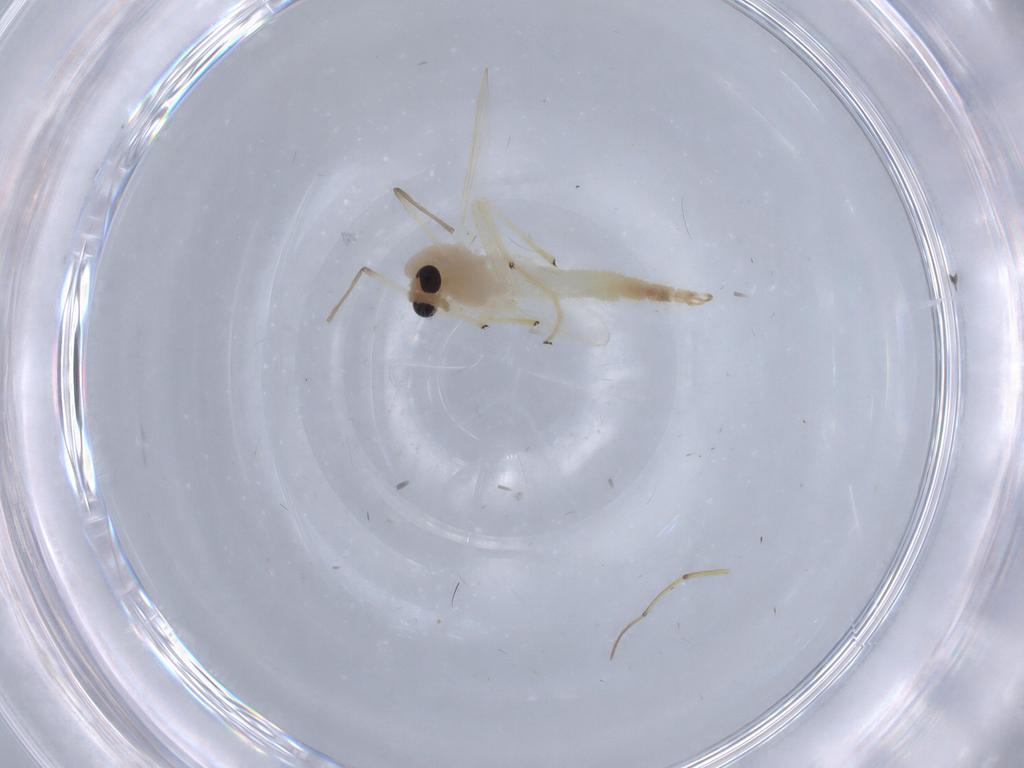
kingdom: Animalia
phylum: Arthropoda
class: Insecta
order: Diptera
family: Chironomidae
